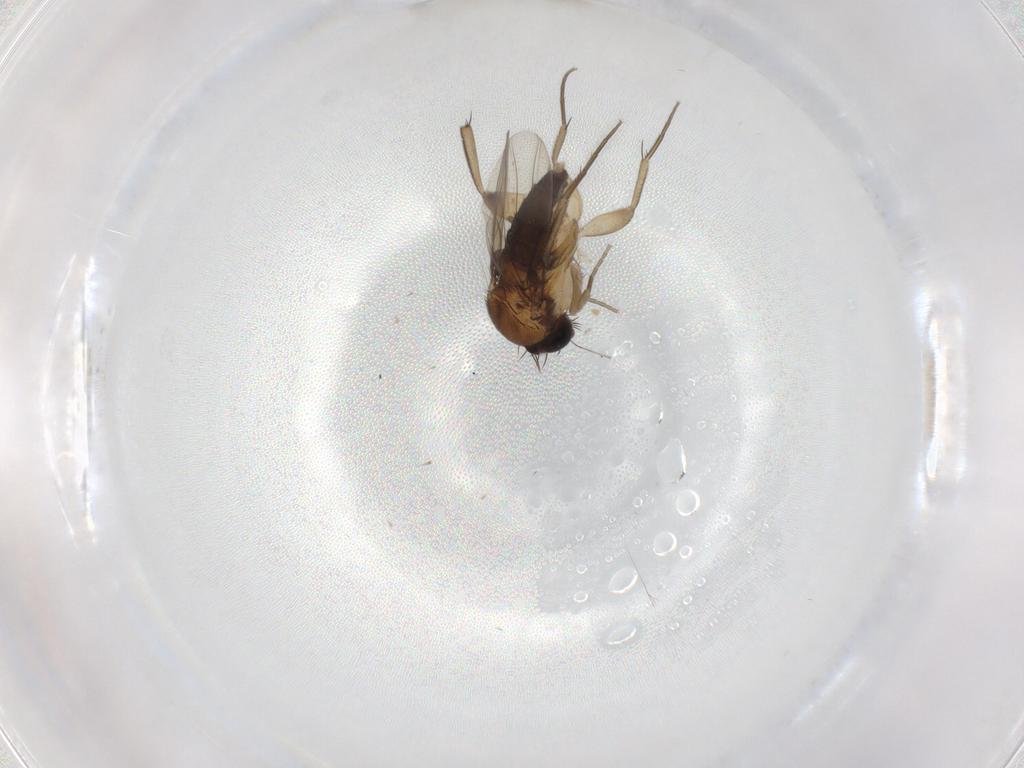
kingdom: Animalia
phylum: Arthropoda
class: Insecta
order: Diptera
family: Phoridae
